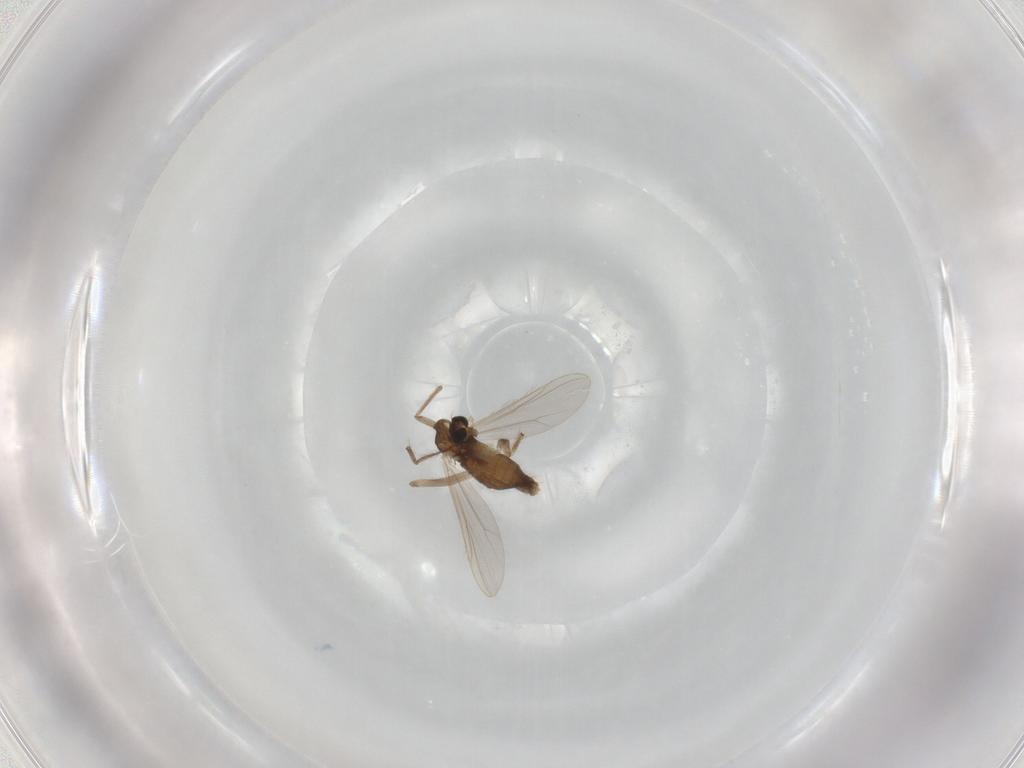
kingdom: Animalia
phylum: Arthropoda
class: Insecta
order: Diptera
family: Chironomidae
